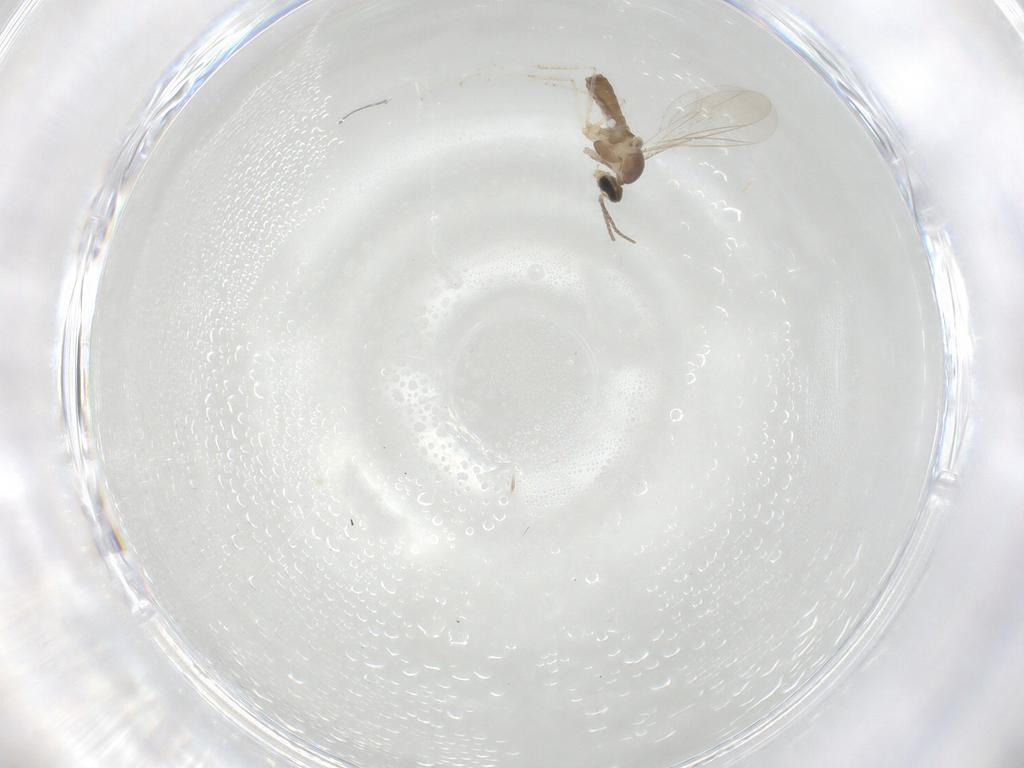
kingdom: Animalia
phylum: Arthropoda
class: Insecta
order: Diptera
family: Cecidomyiidae
